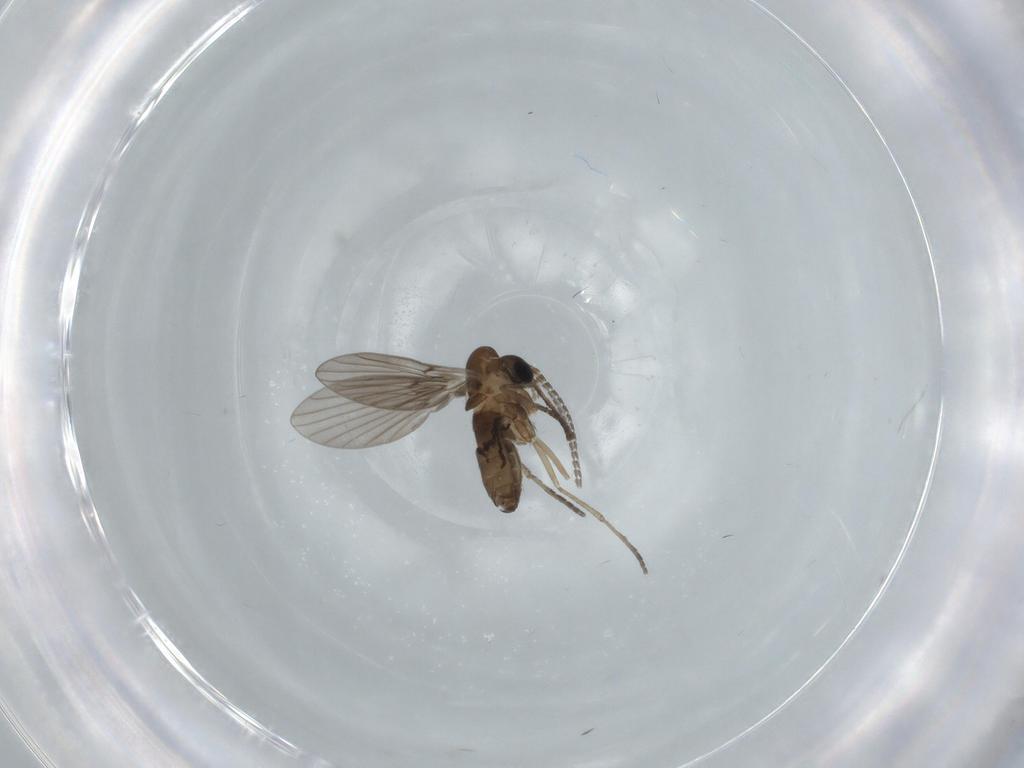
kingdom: Animalia
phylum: Arthropoda
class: Insecta
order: Diptera
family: Psychodidae
